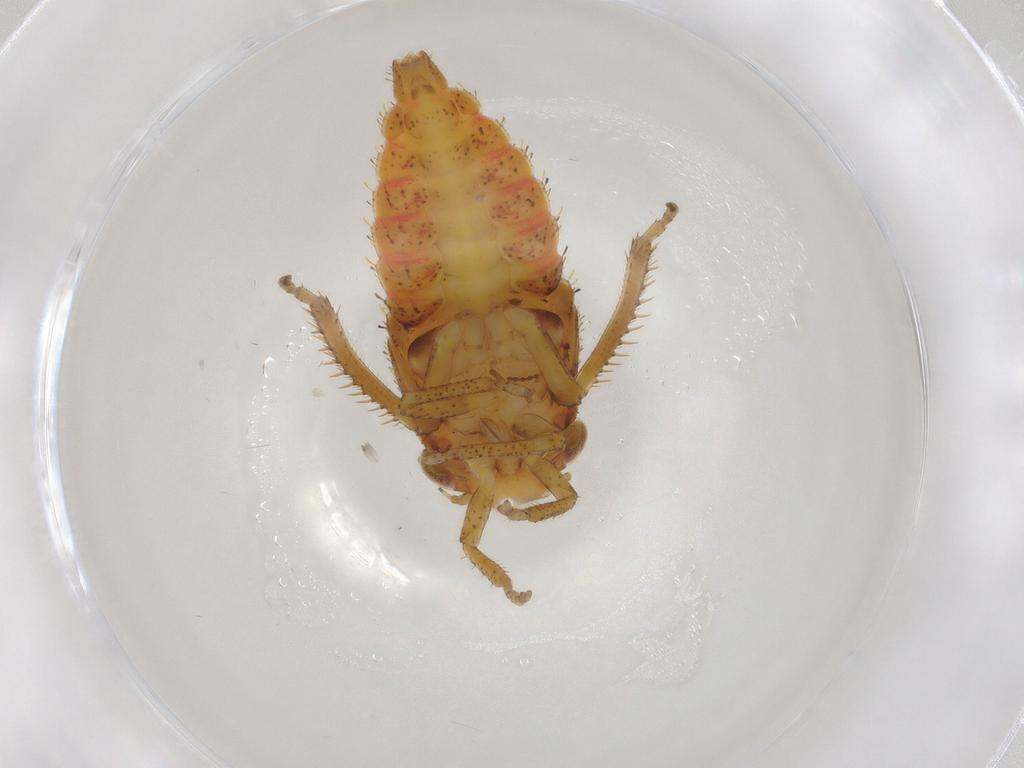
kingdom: Animalia
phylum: Arthropoda
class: Insecta
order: Hemiptera
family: Cicadellidae
